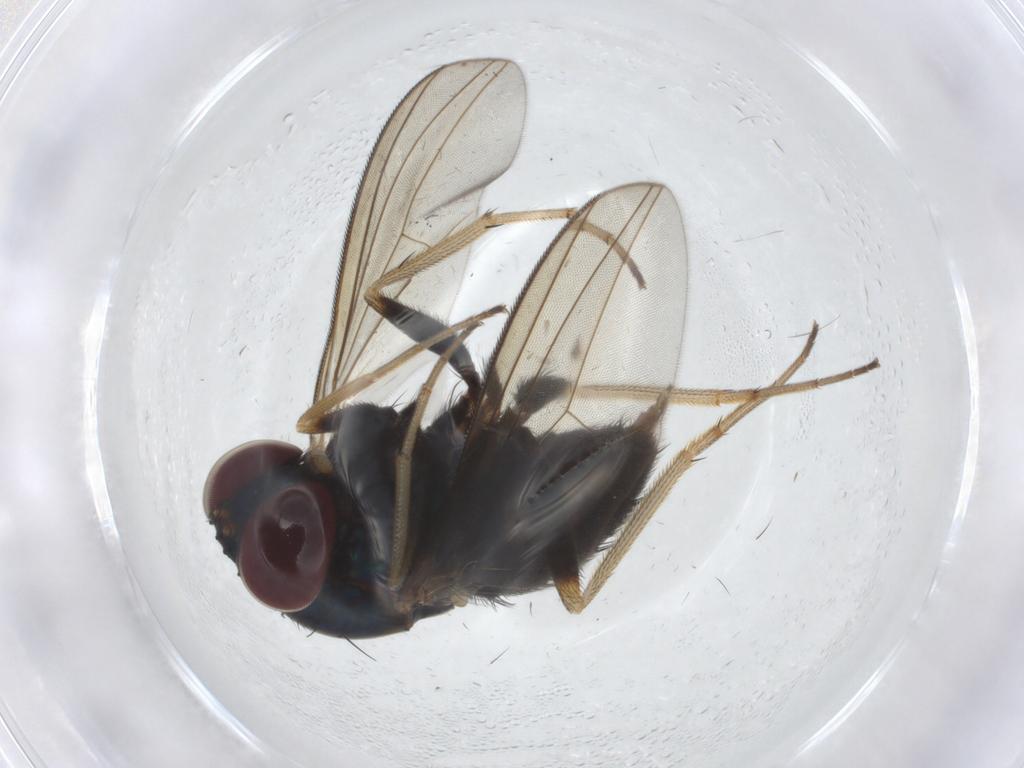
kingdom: Animalia
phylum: Arthropoda
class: Insecta
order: Diptera
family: Dolichopodidae
